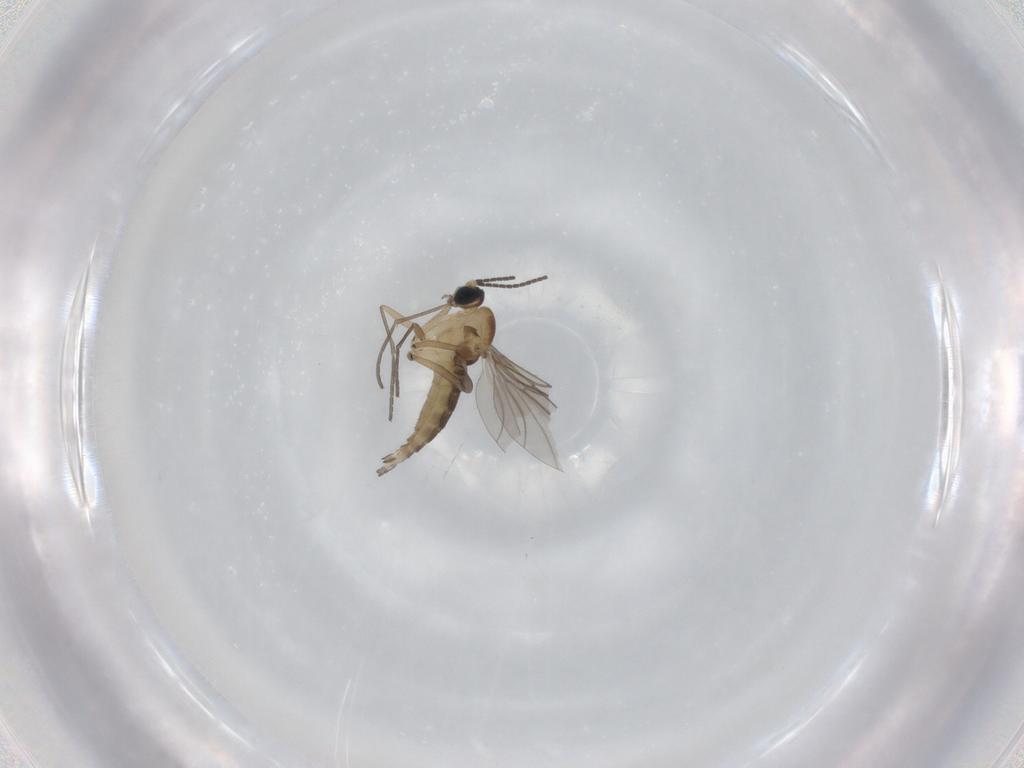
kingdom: Animalia
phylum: Arthropoda
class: Insecta
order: Diptera
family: Sciaridae
